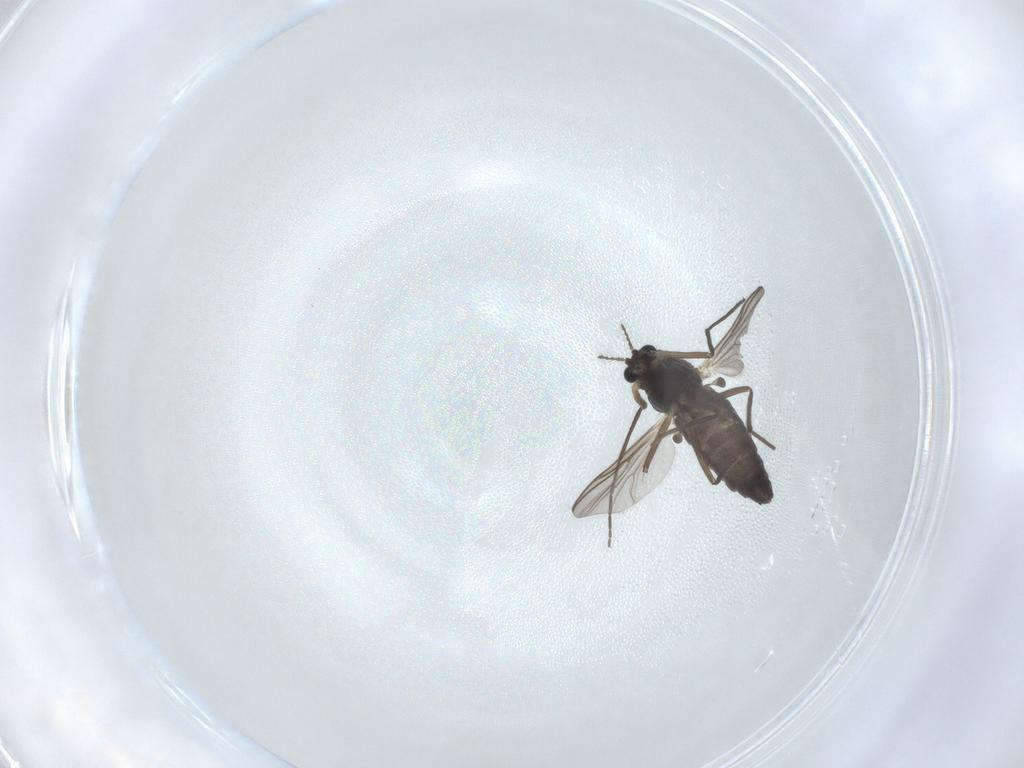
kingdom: Animalia
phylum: Arthropoda
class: Insecta
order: Diptera
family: Chironomidae
